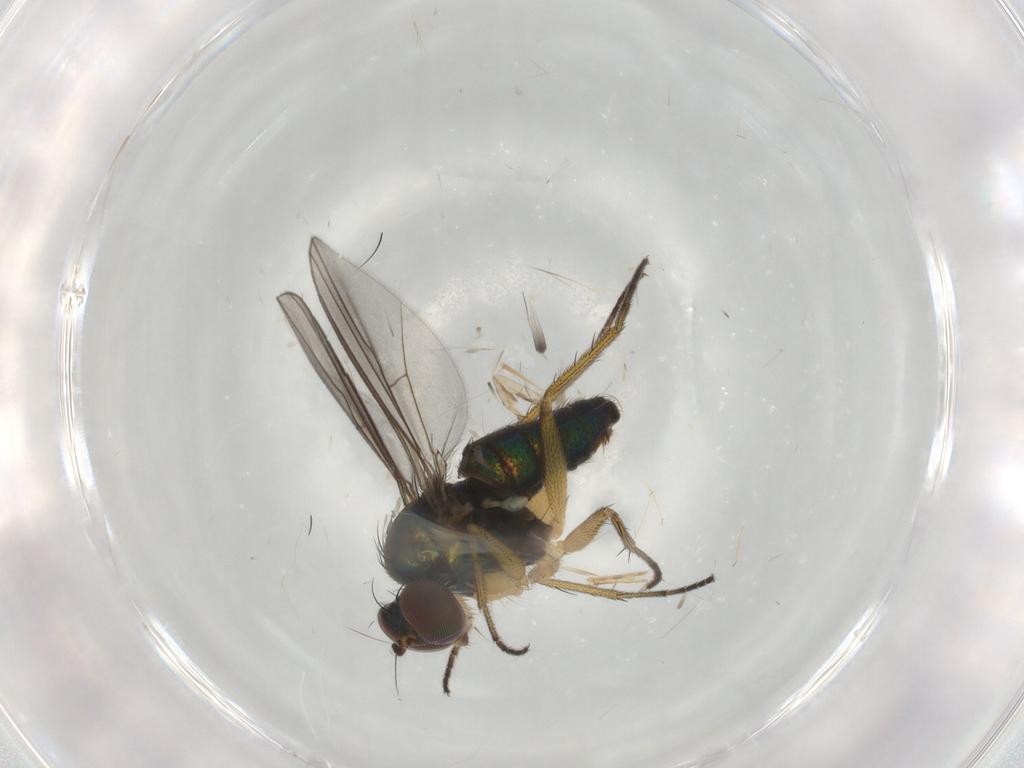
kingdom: Animalia
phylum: Arthropoda
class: Insecta
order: Diptera
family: Dolichopodidae
